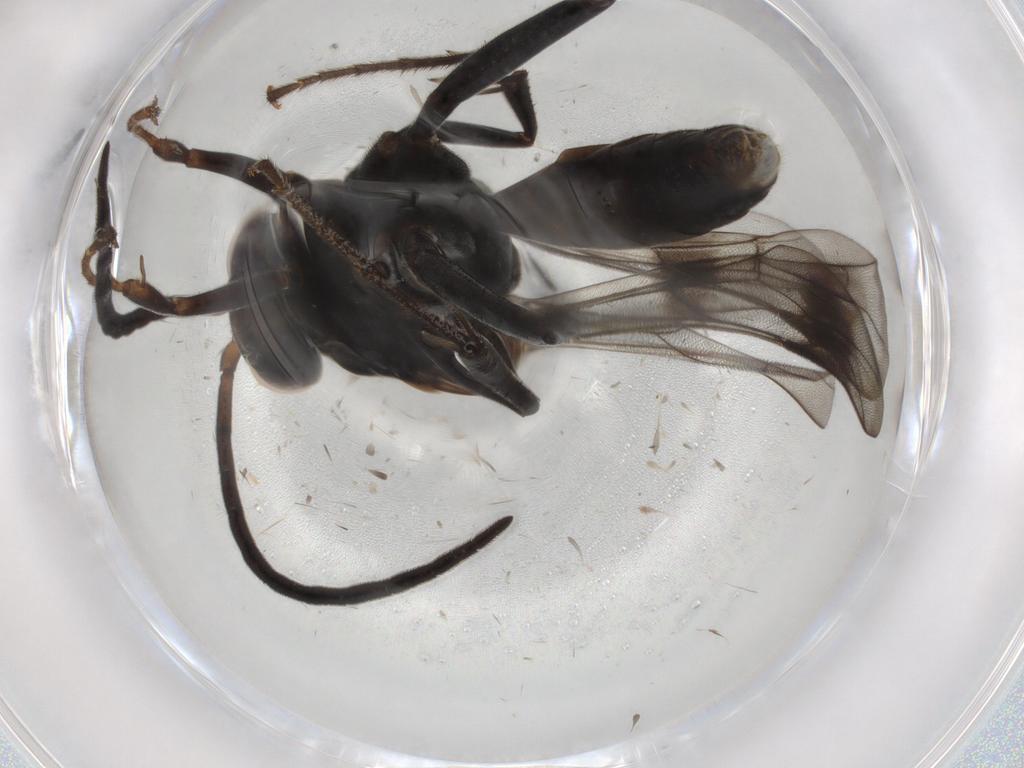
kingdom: Animalia
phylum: Arthropoda
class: Insecta
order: Hymenoptera
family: Pompilidae
